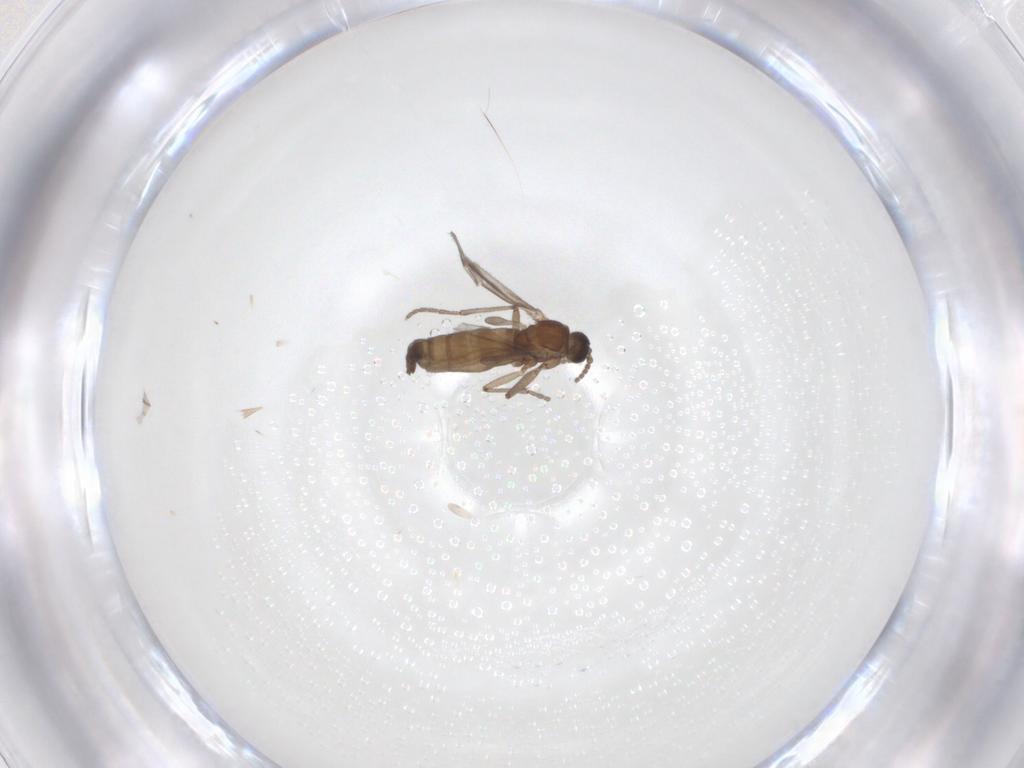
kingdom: Animalia
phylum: Arthropoda
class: Insecta
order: Diptera
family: Sciaridae
